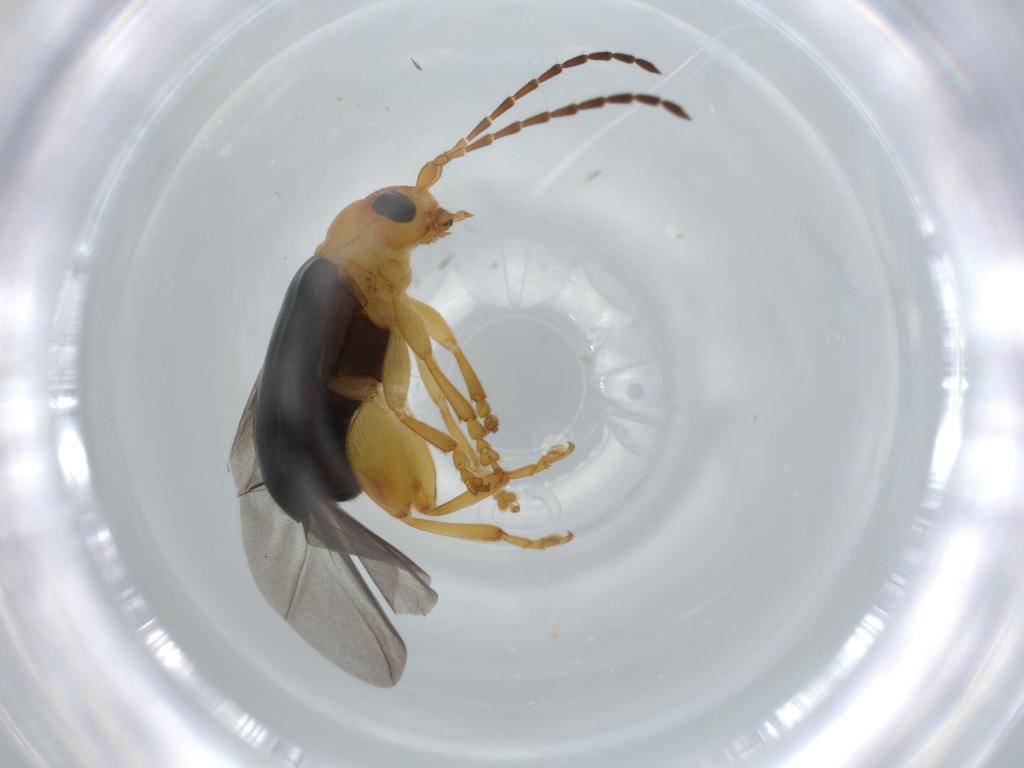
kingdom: Animalia
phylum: Arthropoda
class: Insecta
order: Coleoptera
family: Chrysomelidae
